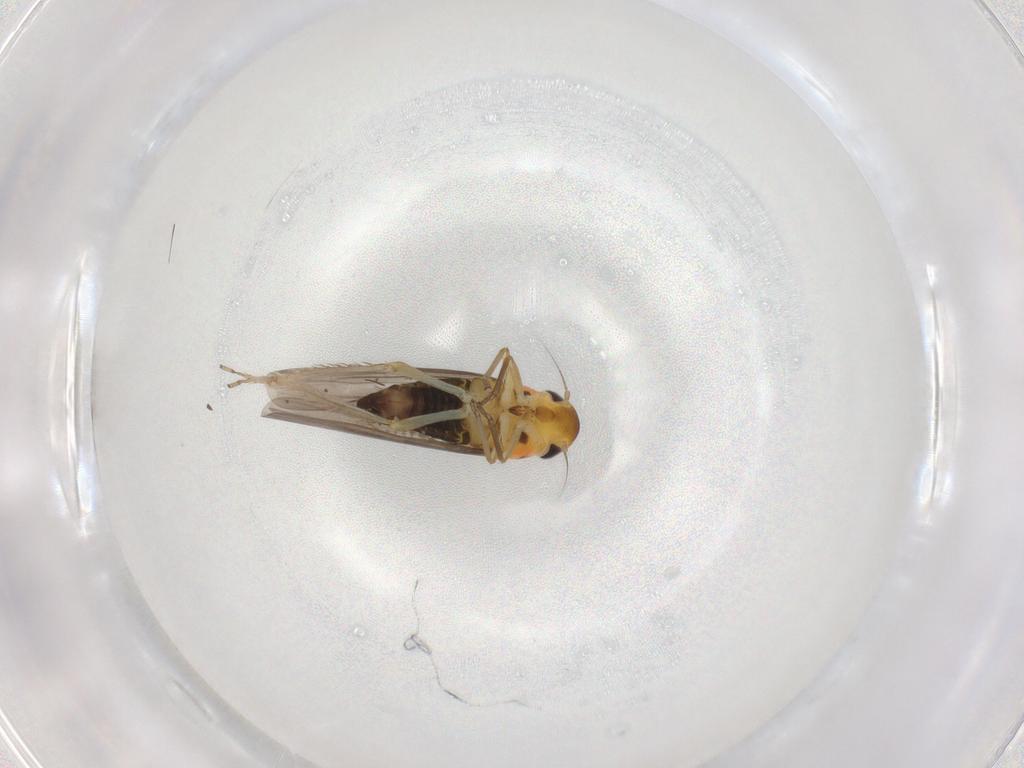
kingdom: Animalia
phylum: Arthropoda
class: Insecta
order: Hemiptera
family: Cicadellidae
